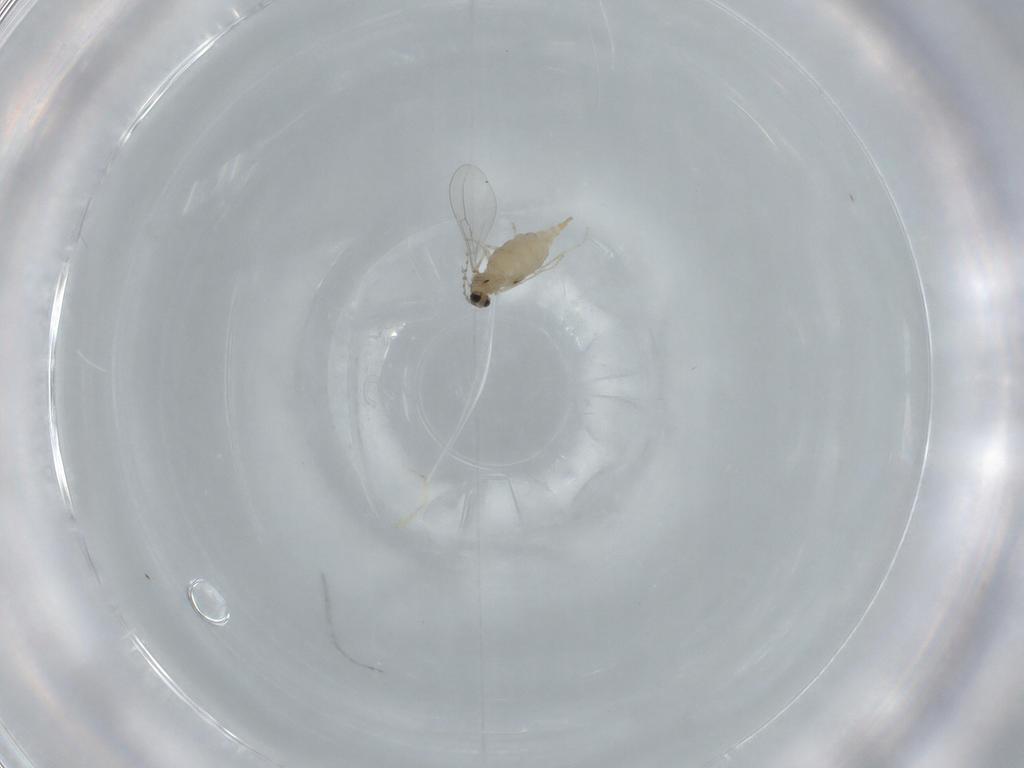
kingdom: Animalia
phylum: Arthropoda
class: Insecta
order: Diptera
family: Cecidomyiidae
